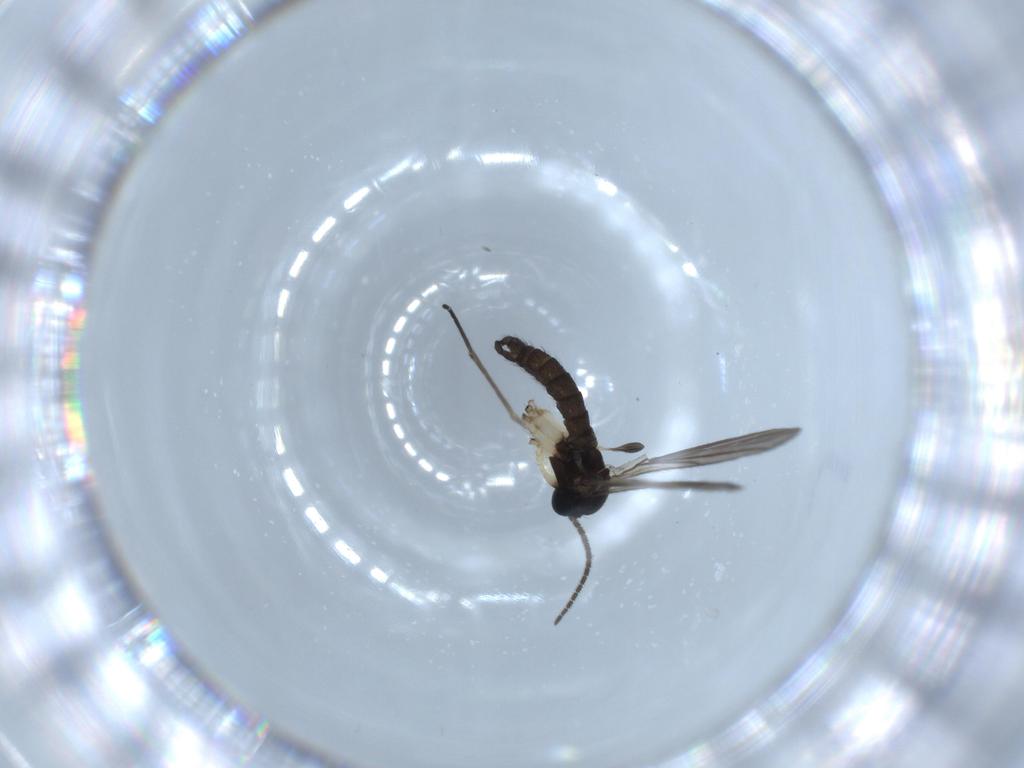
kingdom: Animalia
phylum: Arthropoda
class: Insecta
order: Diptera
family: Sciaridae
